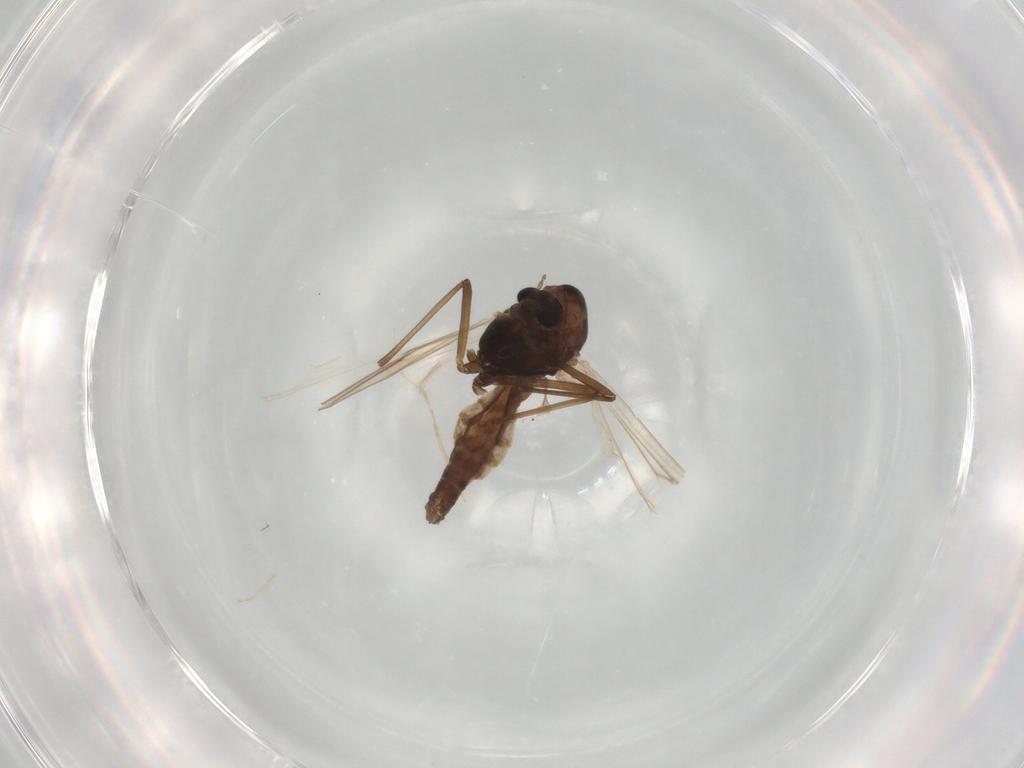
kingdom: Animalia
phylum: Arthropoda
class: Insecta
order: Diptera
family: Chironomidae
